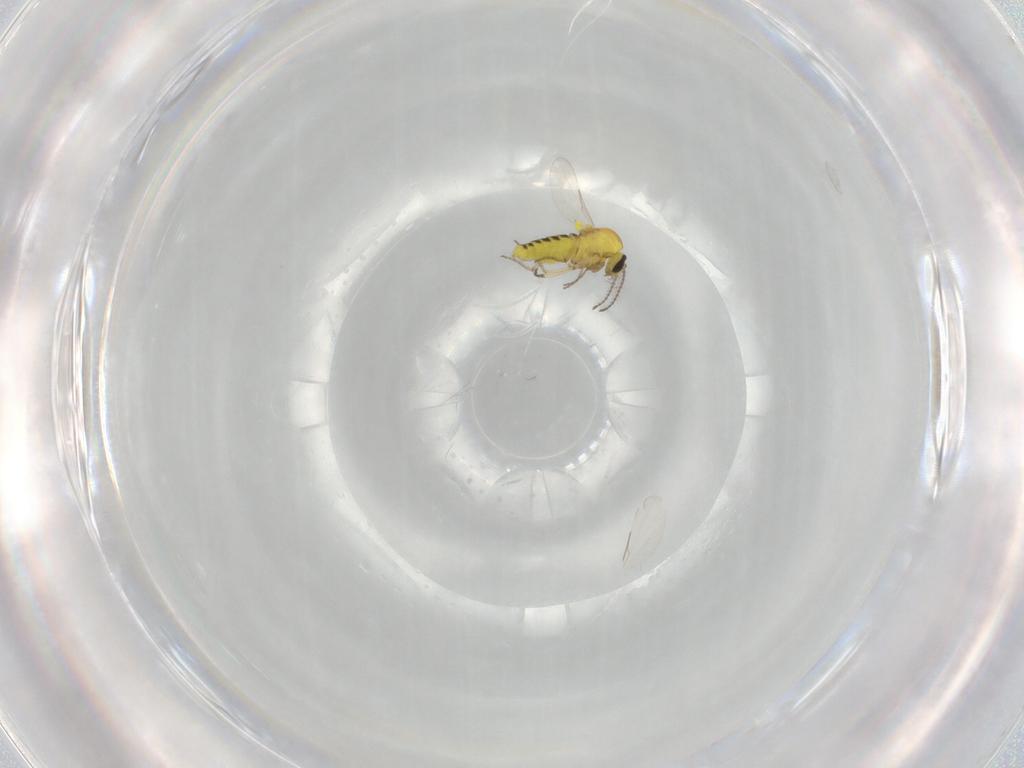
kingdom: Animalia
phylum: Arthropoda
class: Insecta
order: Diptera
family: Ceratopogonidae
